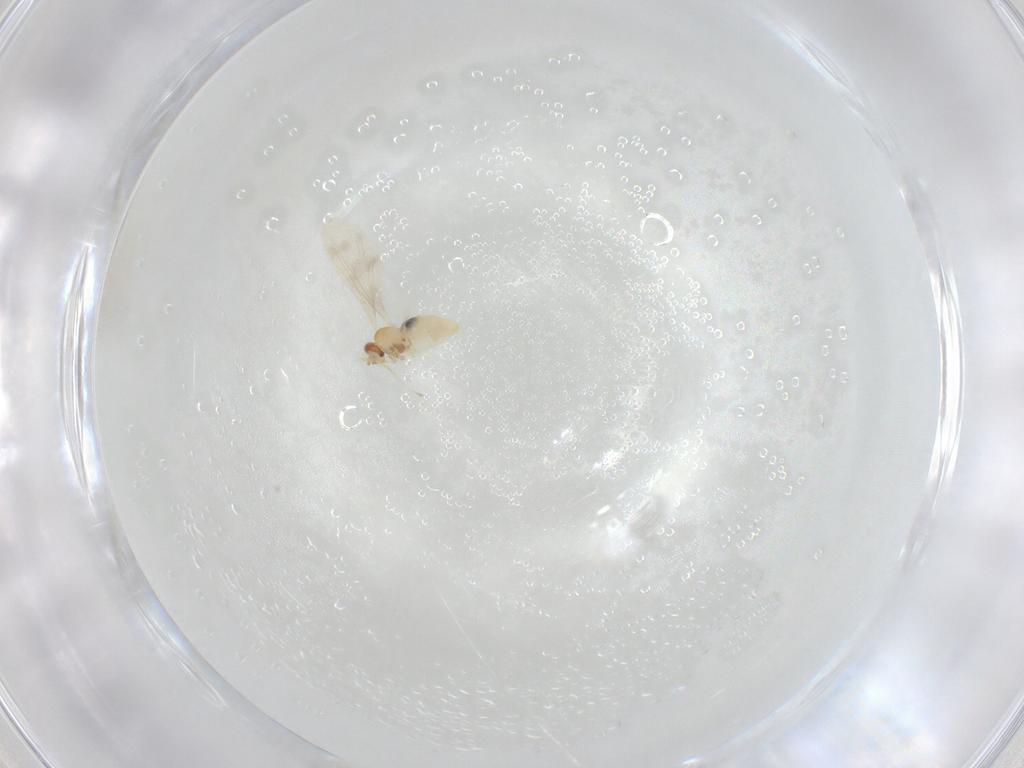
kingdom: Animalia
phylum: Arthropoda
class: Insecta
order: Diptera
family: Cecidomyiidae
